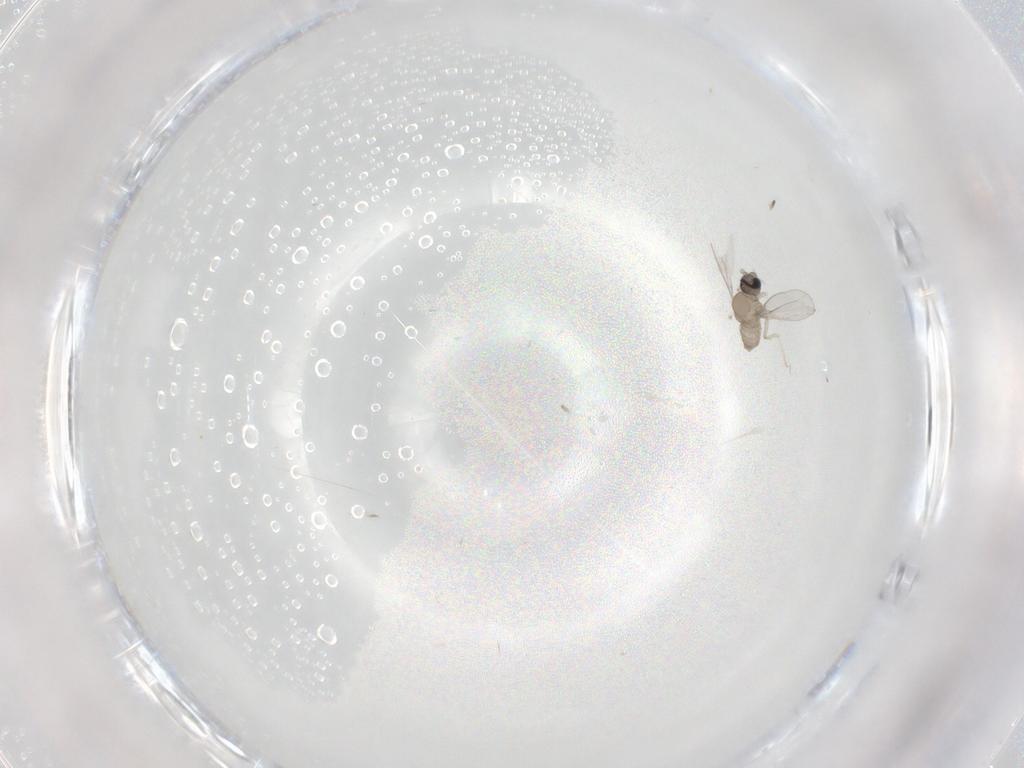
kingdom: Animalia
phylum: Arthropoda
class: Insecta
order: Diptera
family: Cecidomyiidae
